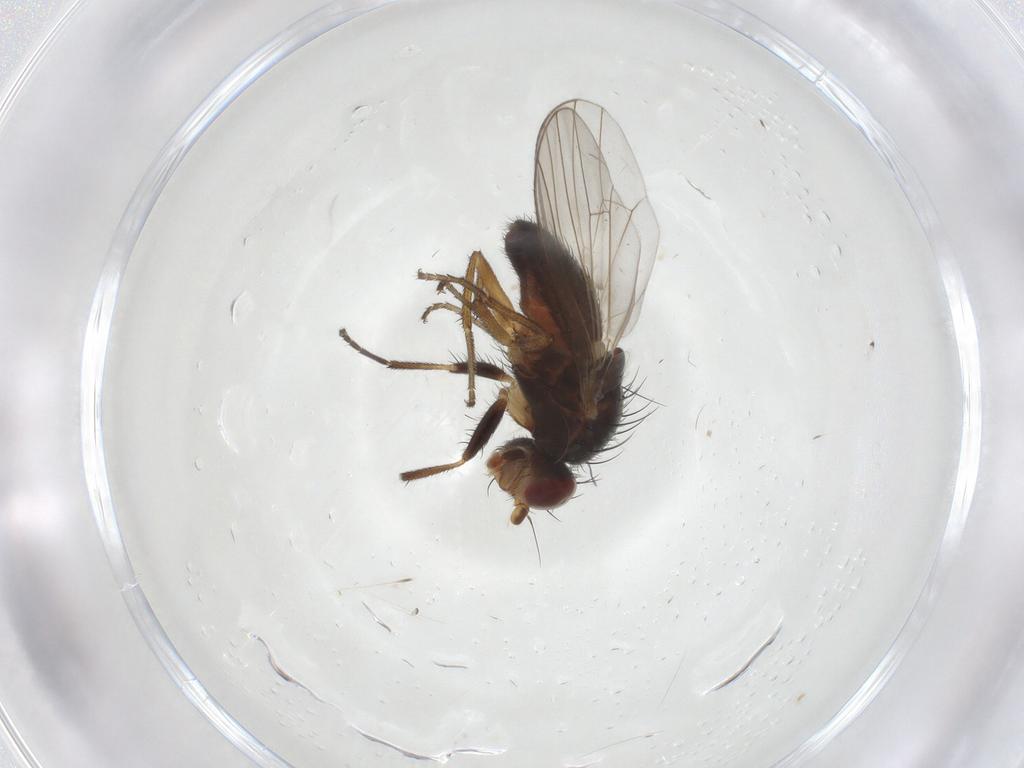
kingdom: Animalia
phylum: Arthropoda
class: Insecta
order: Diptera
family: Heleomyzidae
